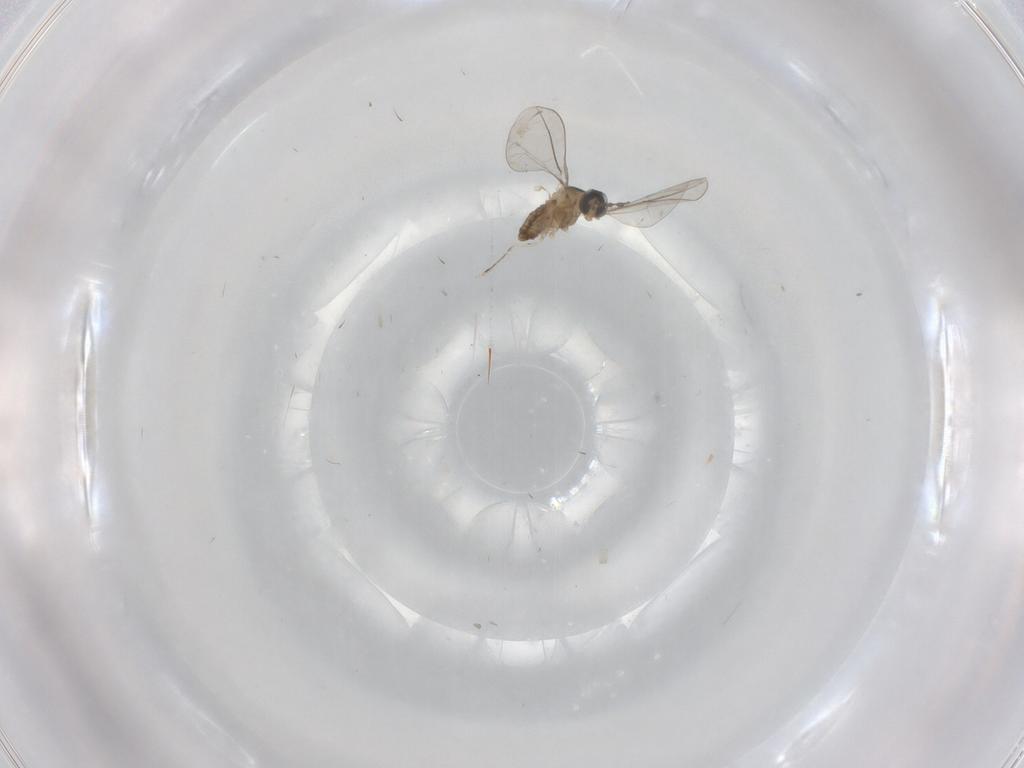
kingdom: Animalia
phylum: Arthropoda
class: Insecta
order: Diptera
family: Cecidomyiidae
